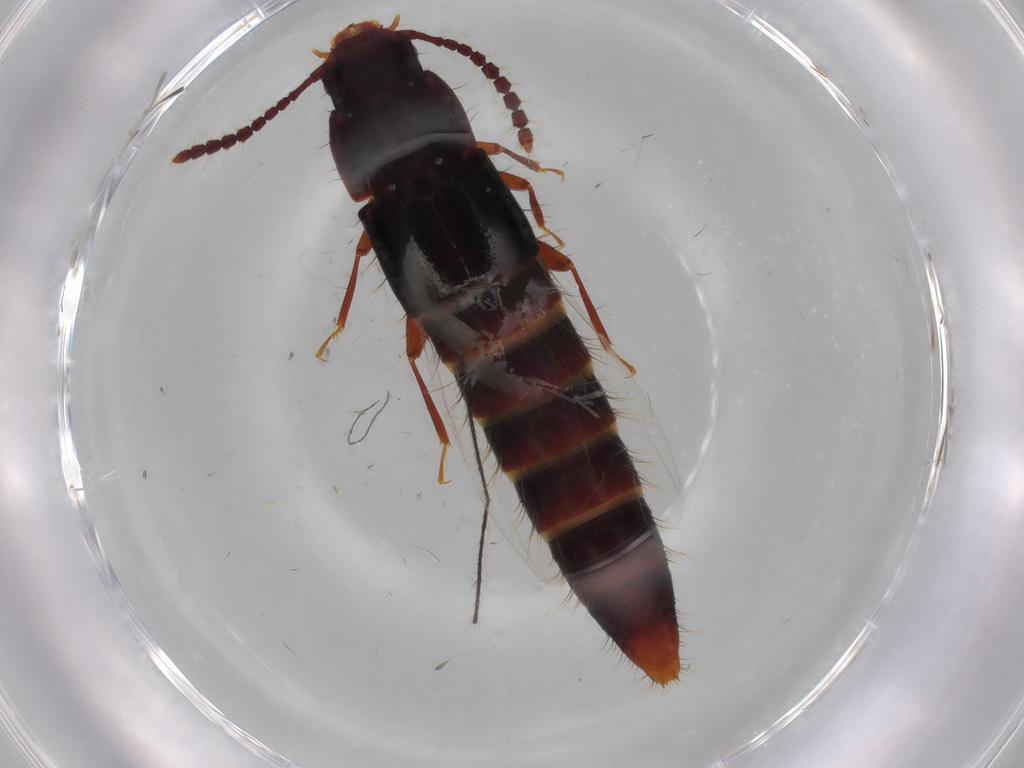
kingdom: Animalia
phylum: Arthropoda
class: Insecta
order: Orthoptera
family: Trigonidiidae
